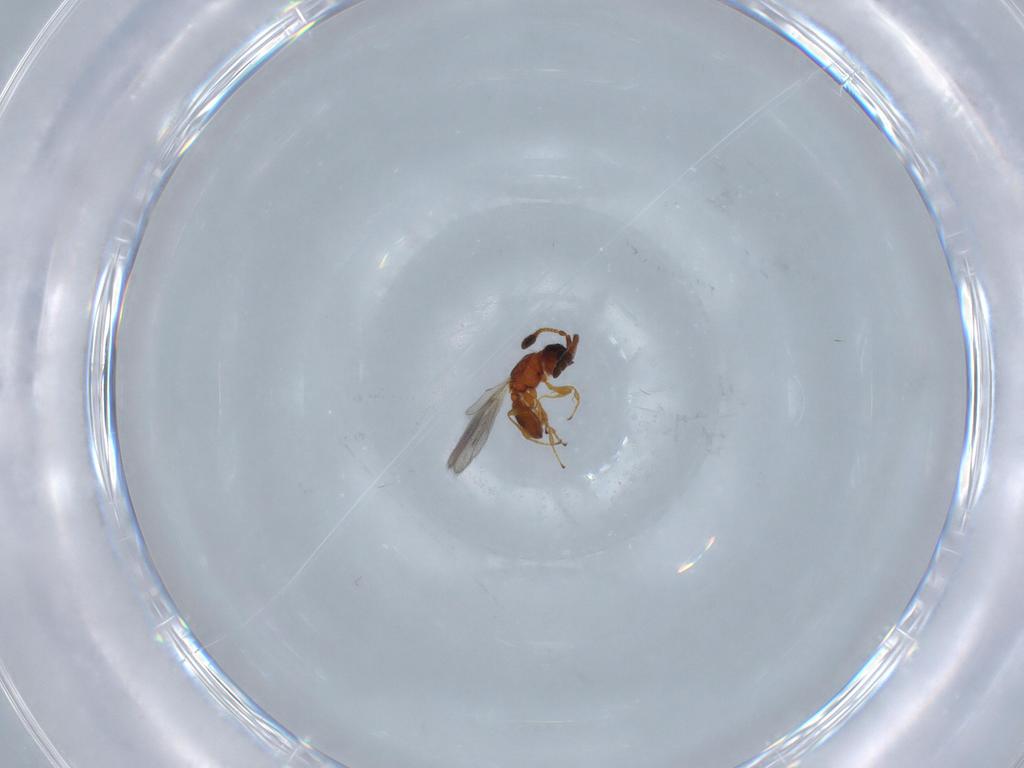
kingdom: Animalia
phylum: Arthropoda
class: Insecta
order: Hymenoptera
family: Diapriidae
